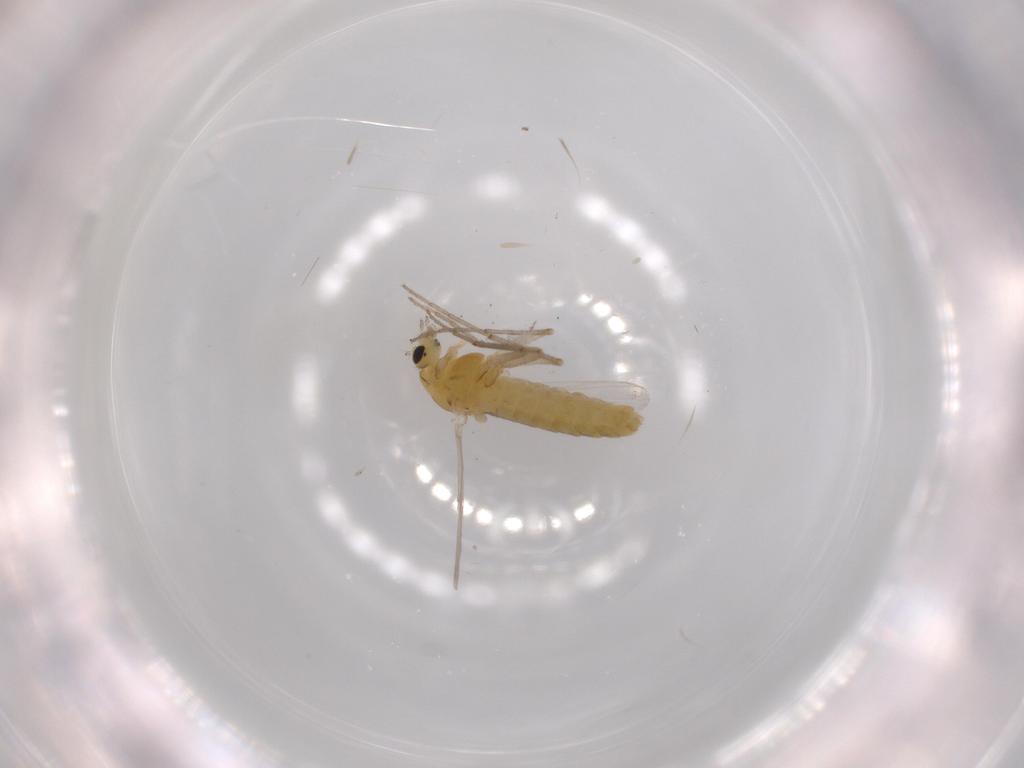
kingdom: Animalia
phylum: Arthropoda
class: Insecta
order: Diptera
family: Chironomidae
